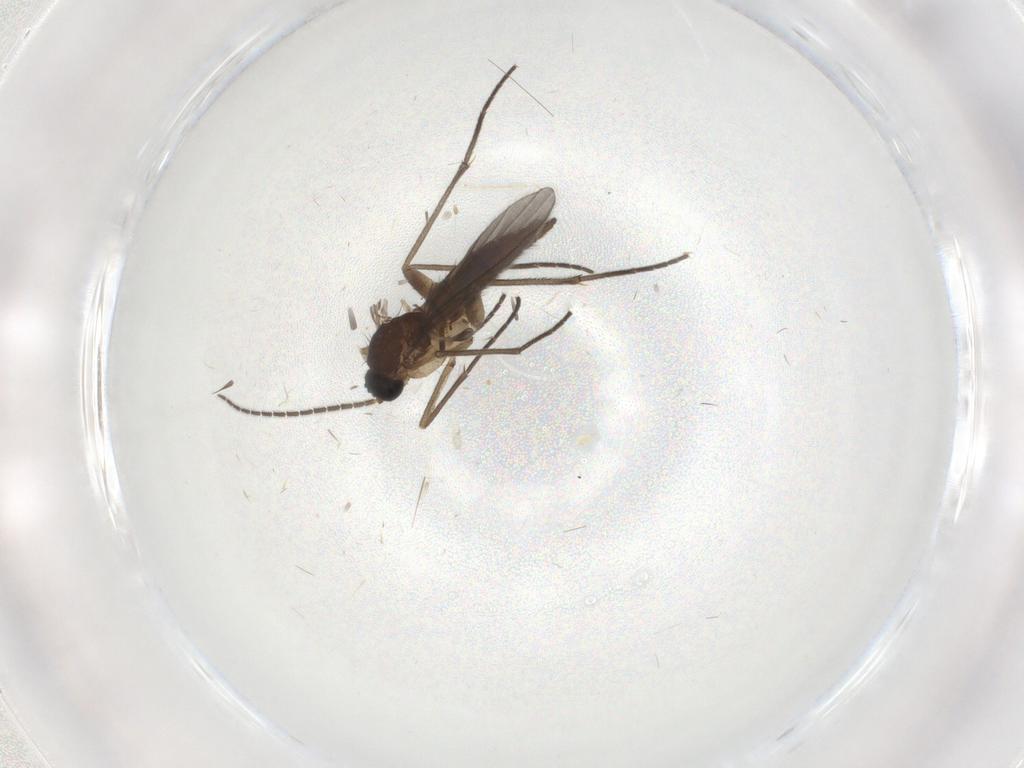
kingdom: Animalia
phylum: Arthropoda
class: Insecta
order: Diptera
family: Sciaridae
